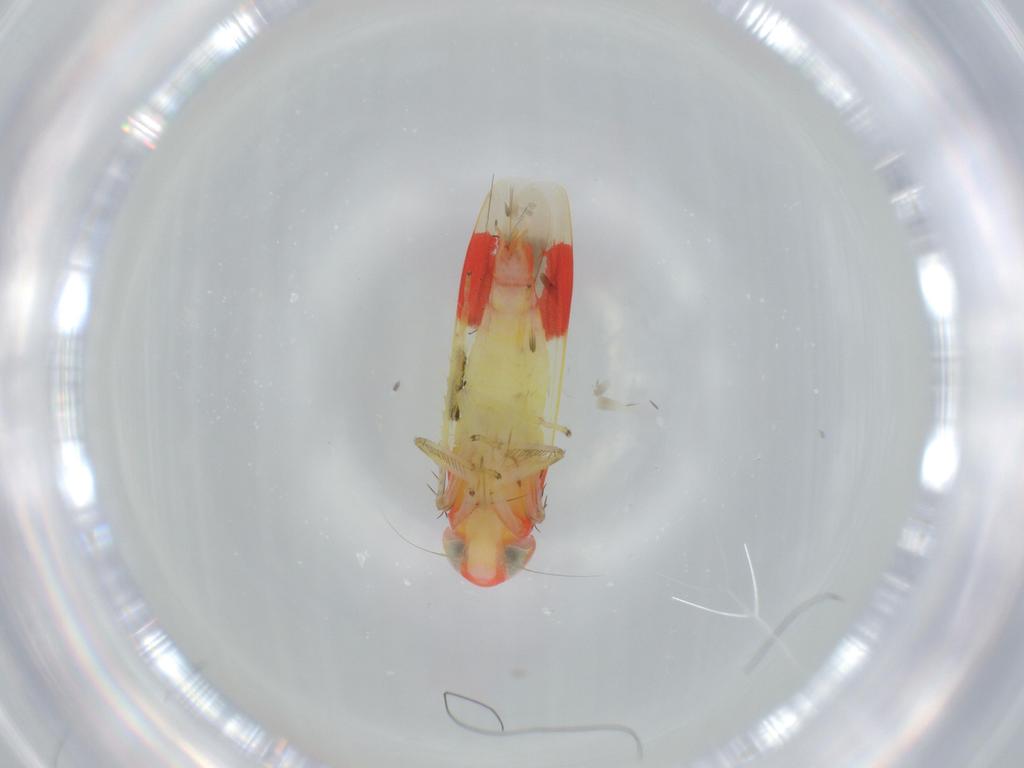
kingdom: Animalia
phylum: Arthropoda
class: Insecta
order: Hemiptera
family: Cicadellidae
